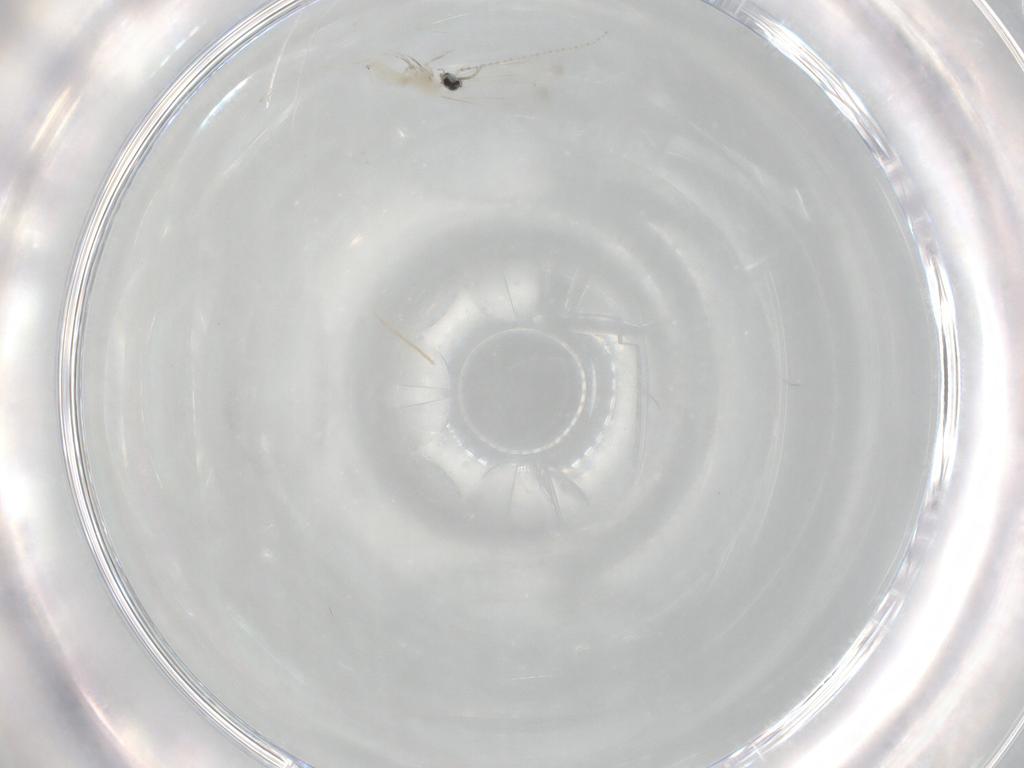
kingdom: Animalia
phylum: Arthropoda
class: Insecta
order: Diptera
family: Cecidomyiidae
